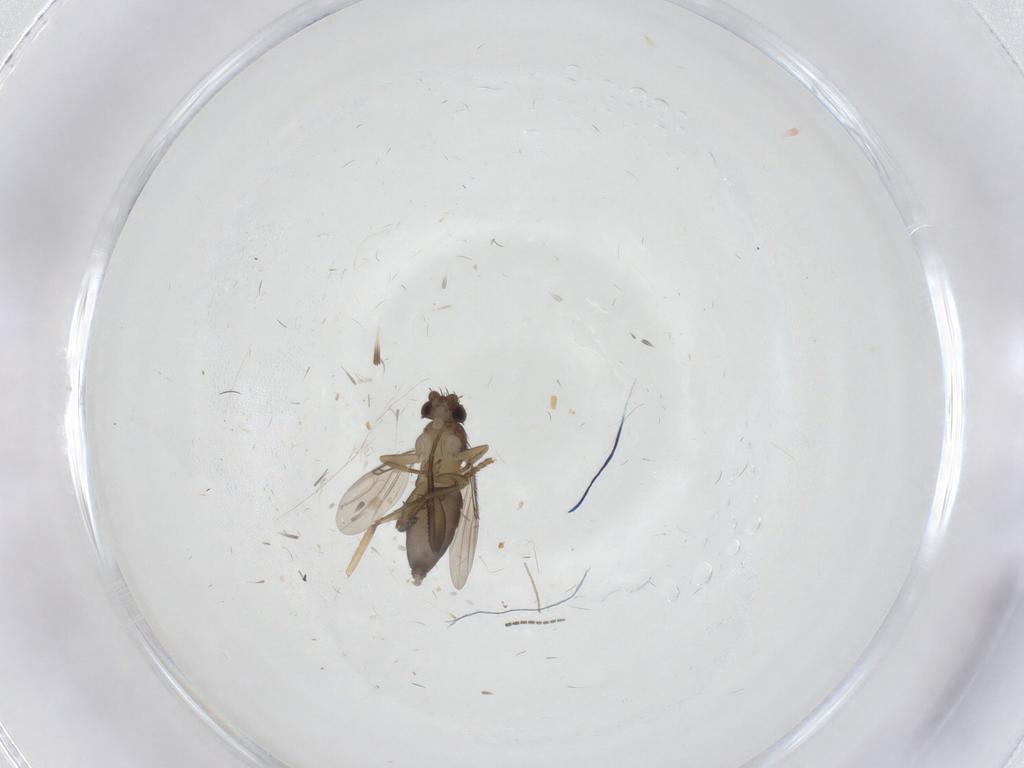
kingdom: Animalia
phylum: Arthropoda
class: Insecta
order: Diptera
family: Phoridae
